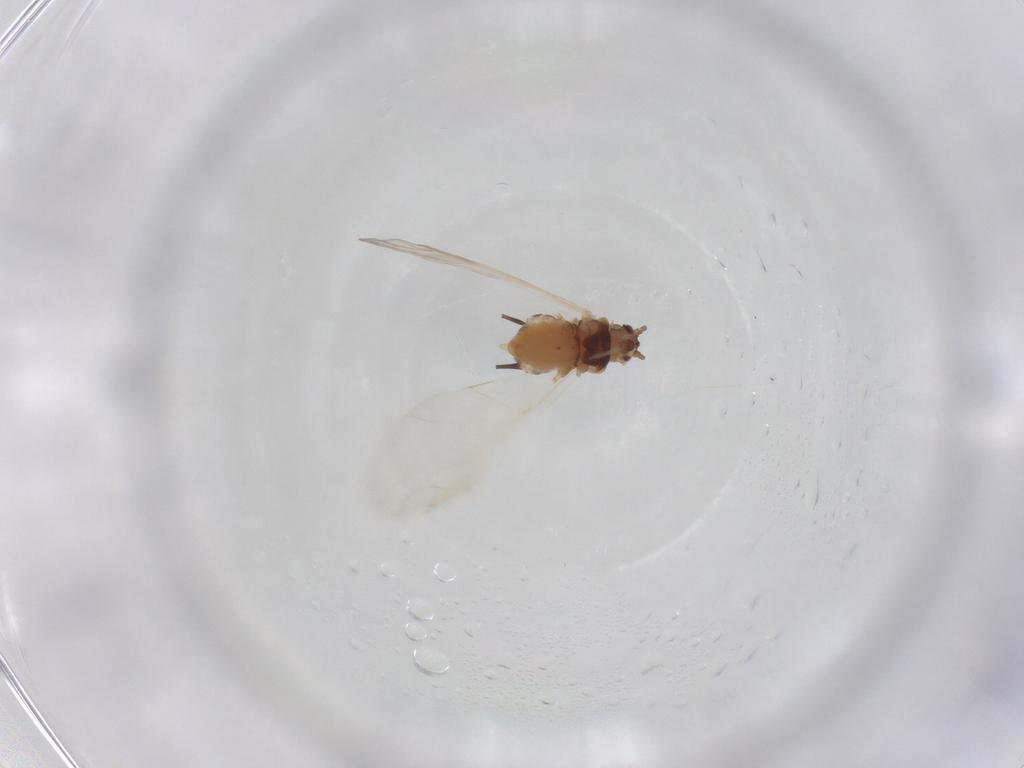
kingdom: Animalia
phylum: Arthropoda
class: Insecta
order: Hemiptera
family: Aphididae
